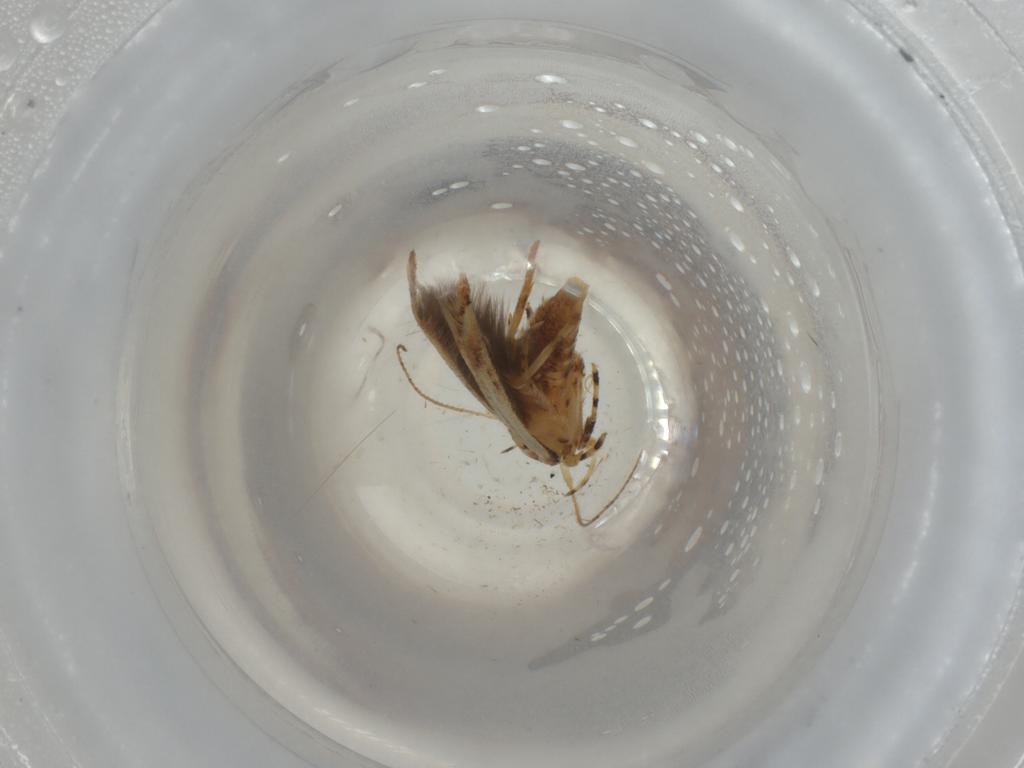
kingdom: Animalia
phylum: Arthropoda
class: Insecta
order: Lepidoptera
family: Cosmopterigidae
